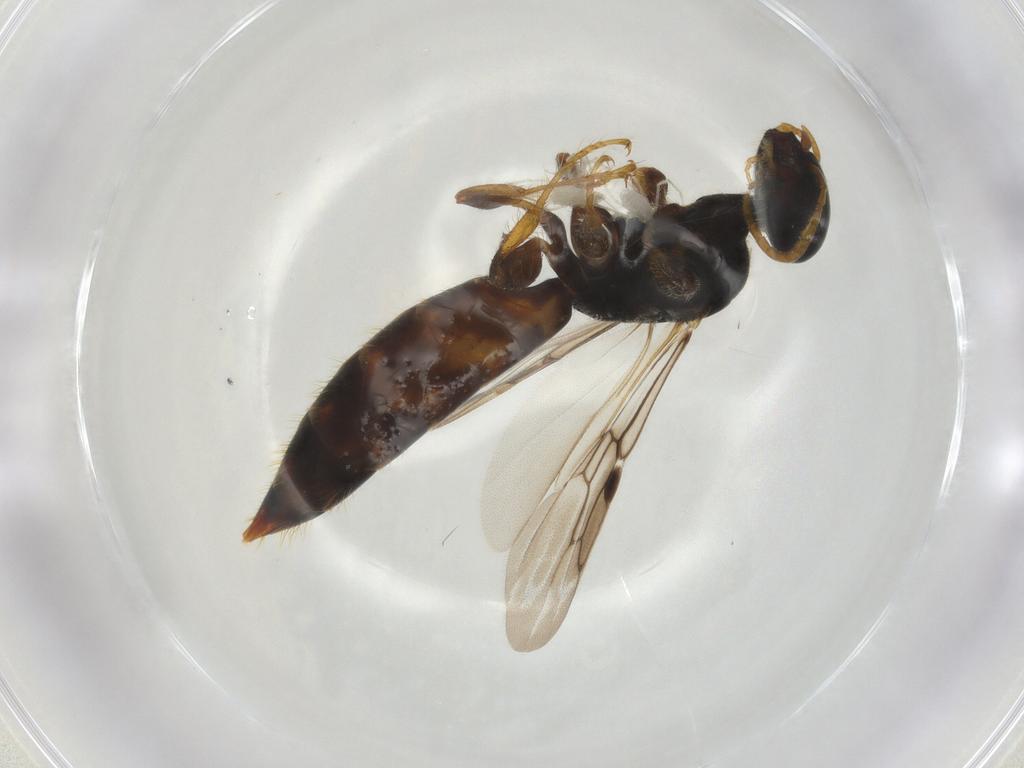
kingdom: Animalia
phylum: Arthropoda
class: Insecta
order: Hymenoptera
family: Scolebythidae
